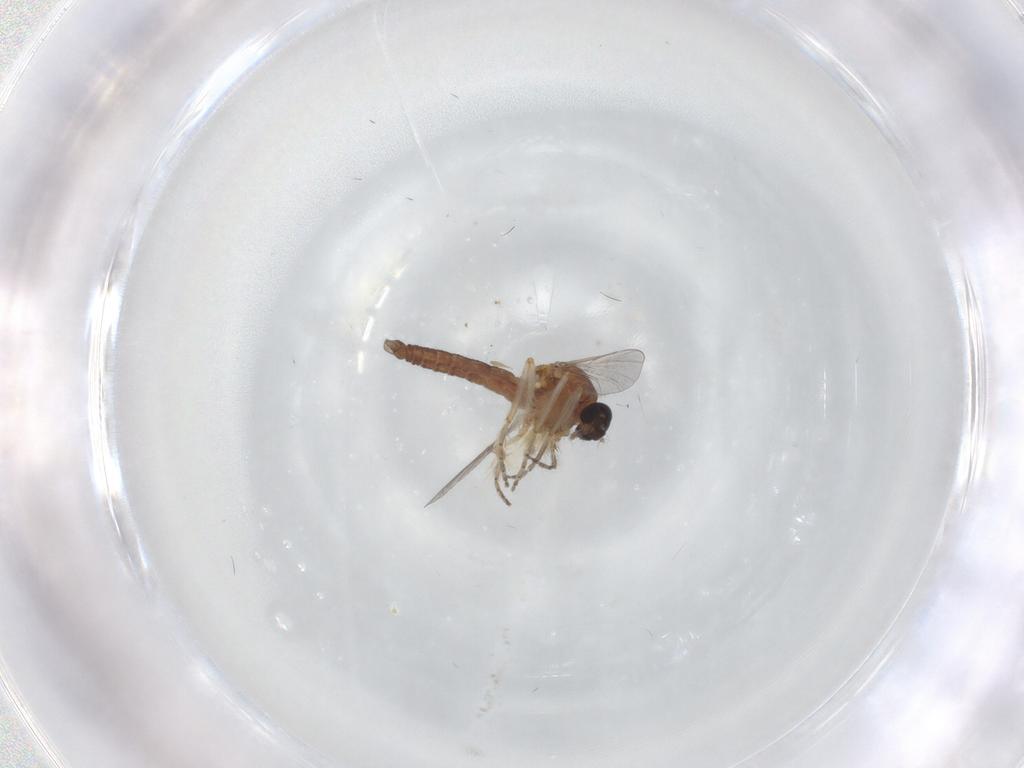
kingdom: Animalia
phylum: Arthropoda
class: Insecta
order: Diptera
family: Ceratopogonidae
